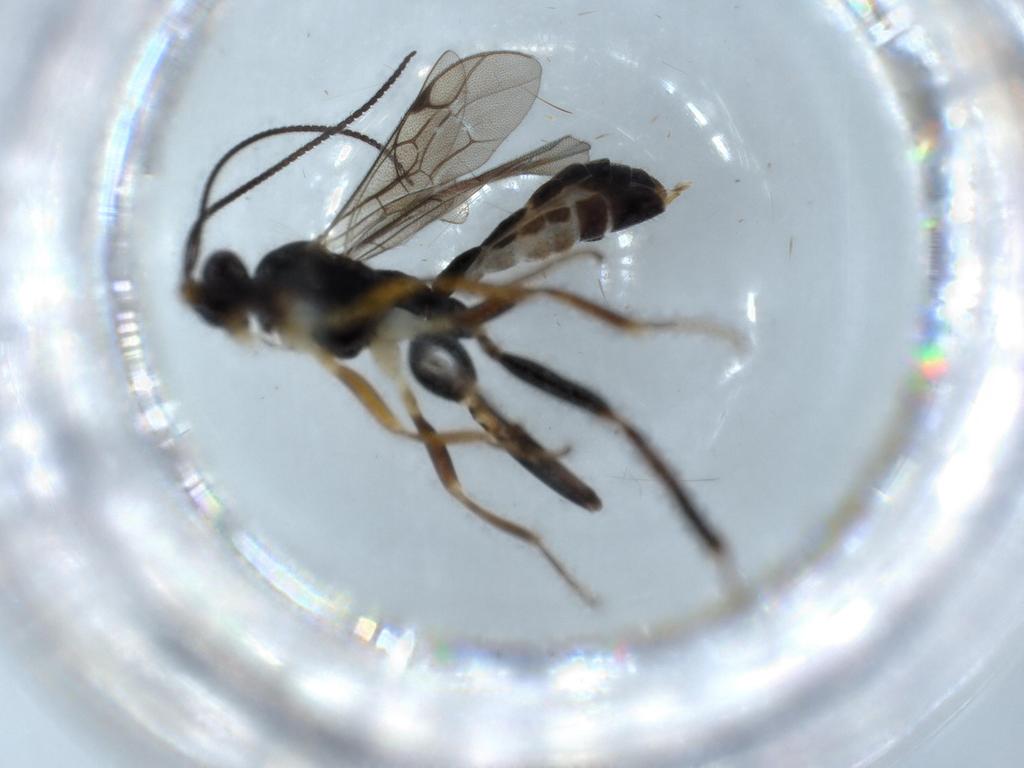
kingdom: Animalia
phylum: Arthropoda
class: Insecta
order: Hymenoptera
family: Ichneumonidae
